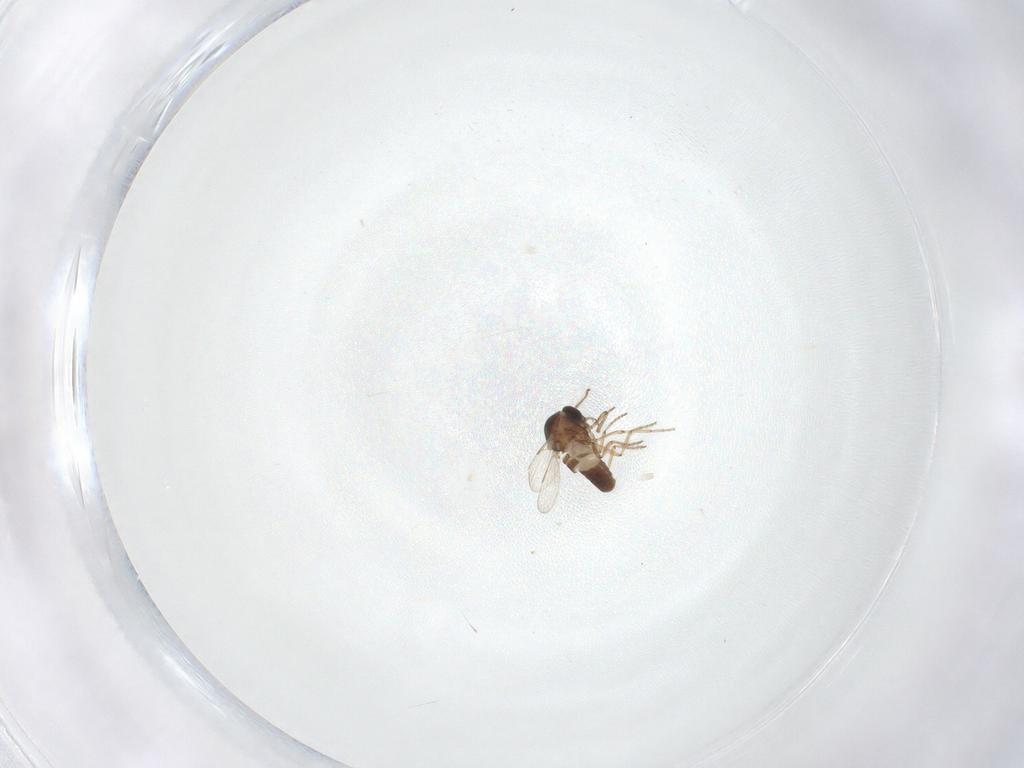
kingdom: Animalia
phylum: Arthropoda
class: Insecta
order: Diptera
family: Ceratopogonidae
